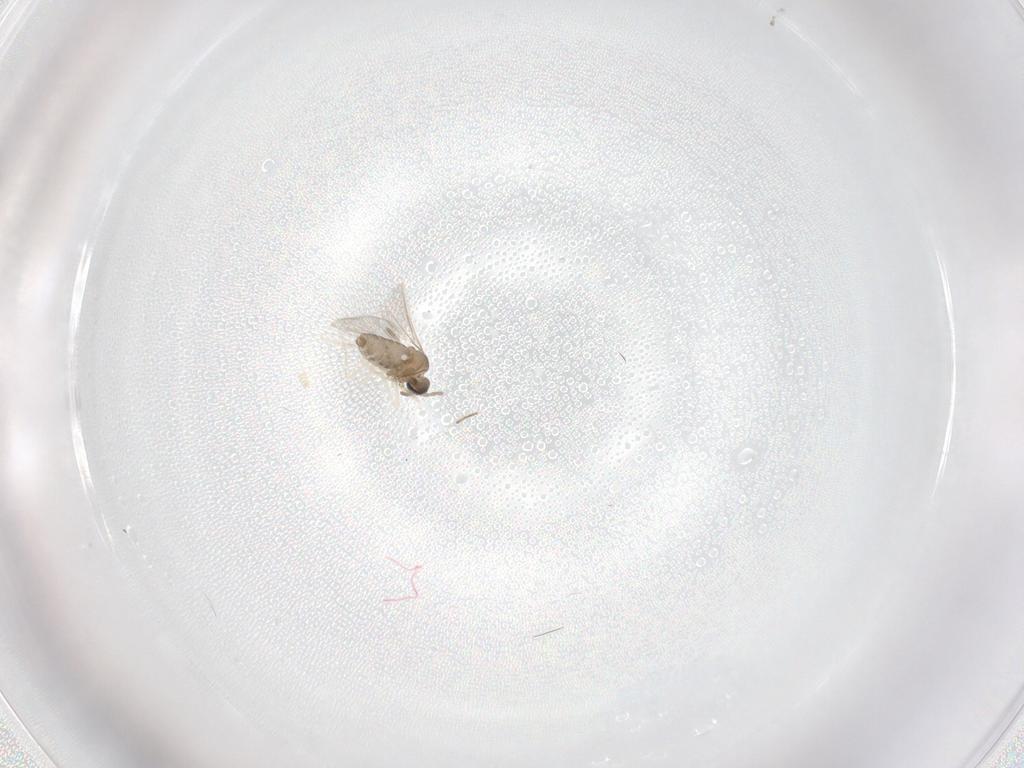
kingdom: Animalia
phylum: Arthropoda
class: Insecta
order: Diptera
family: Cecidomyiidae
